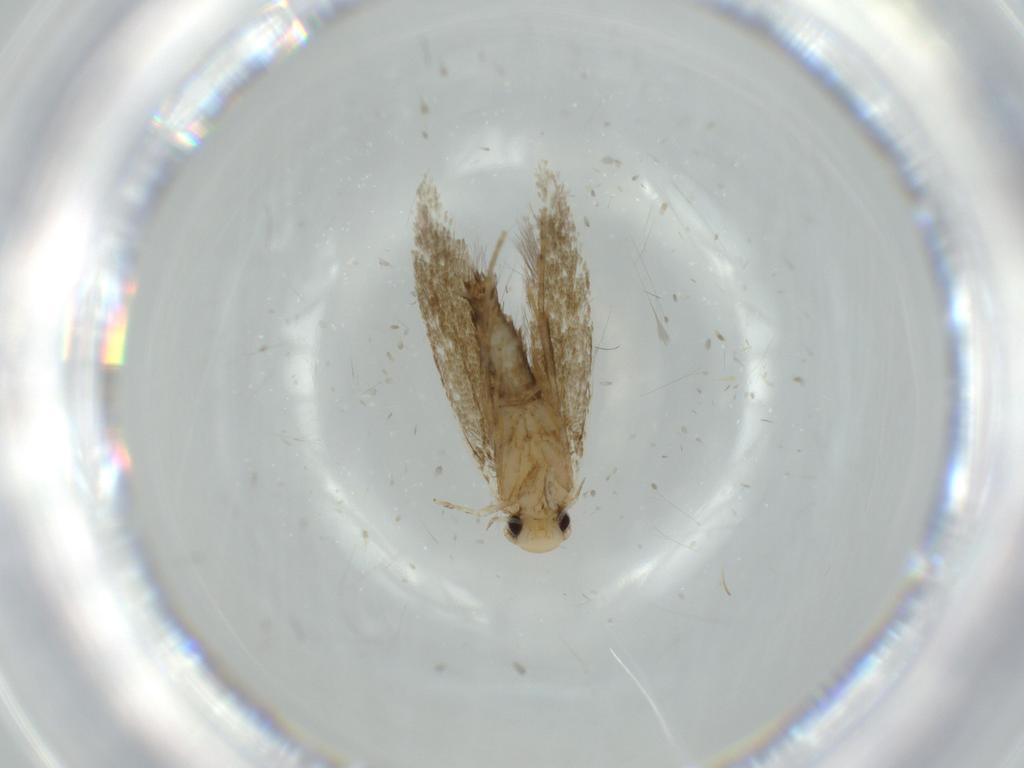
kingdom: Animalia
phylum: Arthropoda
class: Insecta
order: Lepidoptera
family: Tineidae
